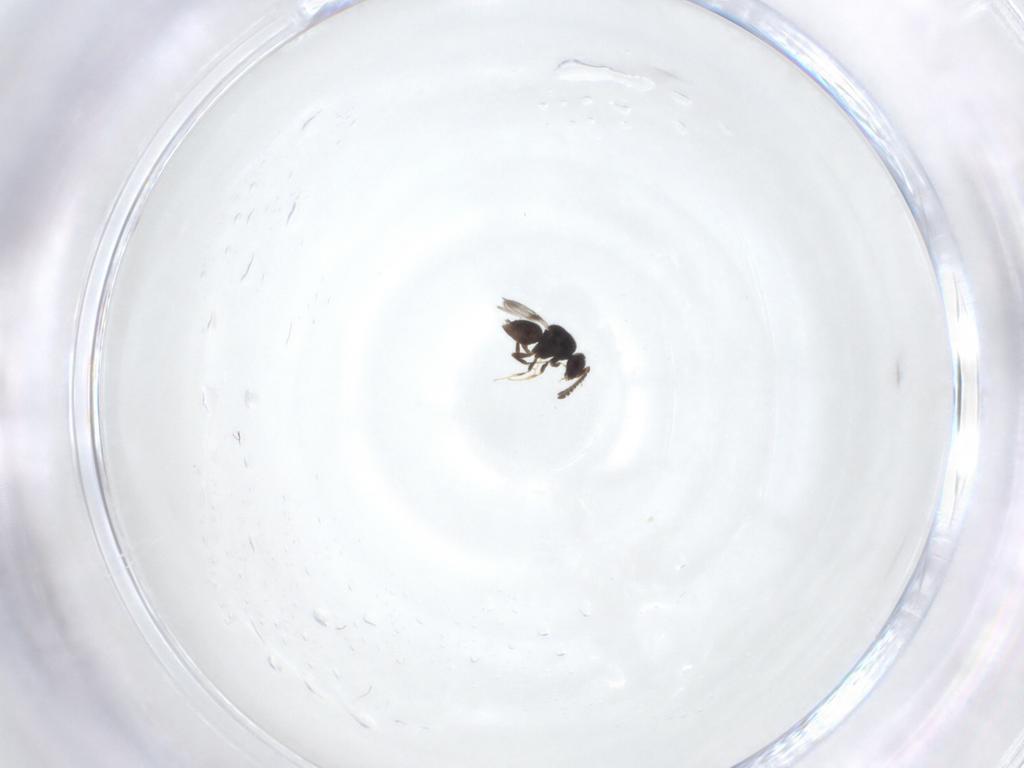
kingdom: Animalia
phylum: Arthropoda
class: Insecta
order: Hymenoptera
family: Ceraphronidae
